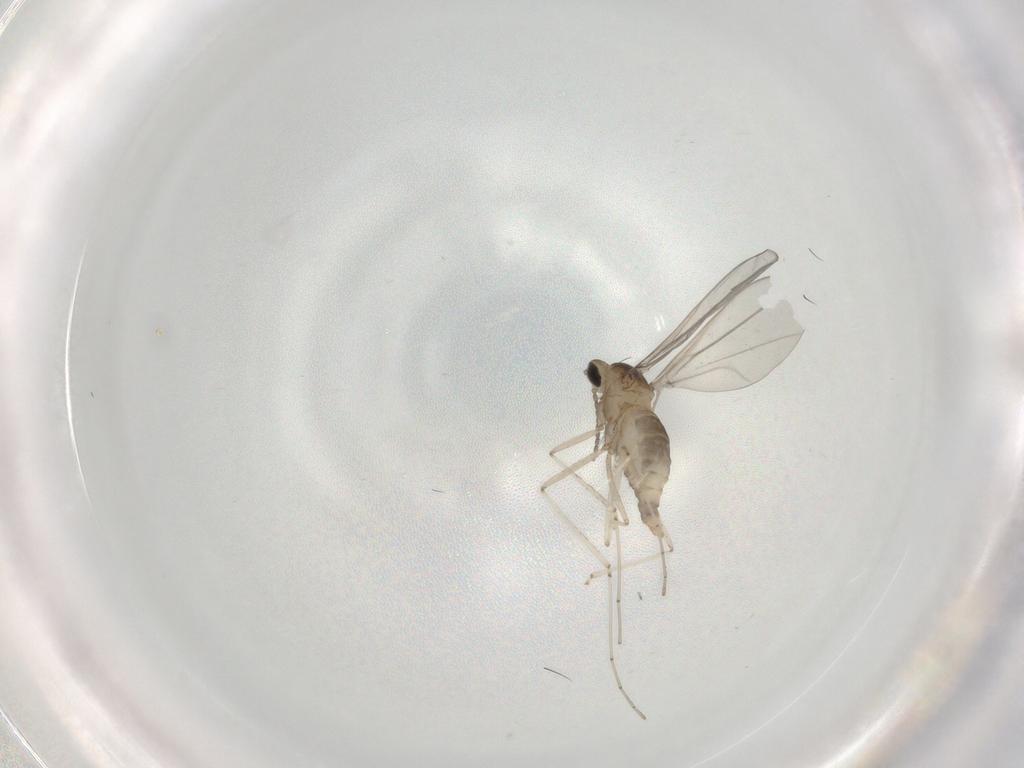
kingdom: Animalia
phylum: Arthropoda
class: Insecta
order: Diptera
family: Cecidomyiidae
